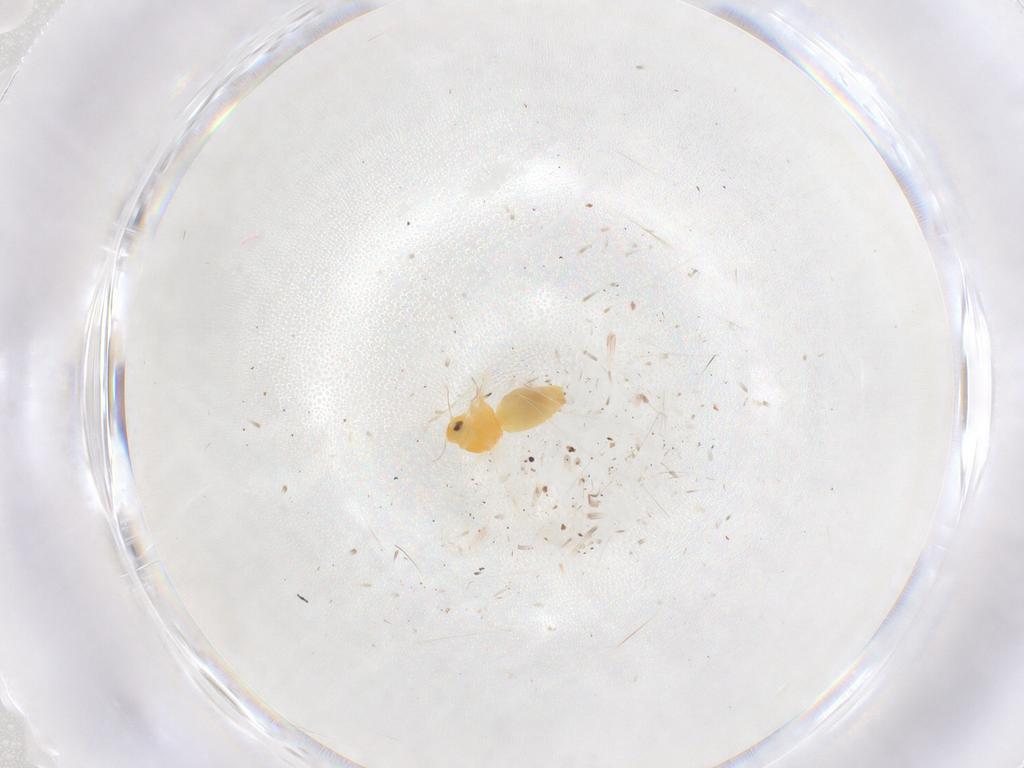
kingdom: Animalia
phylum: Arthropoda
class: Insecta
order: Hemiptera
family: Aleyrodidae
